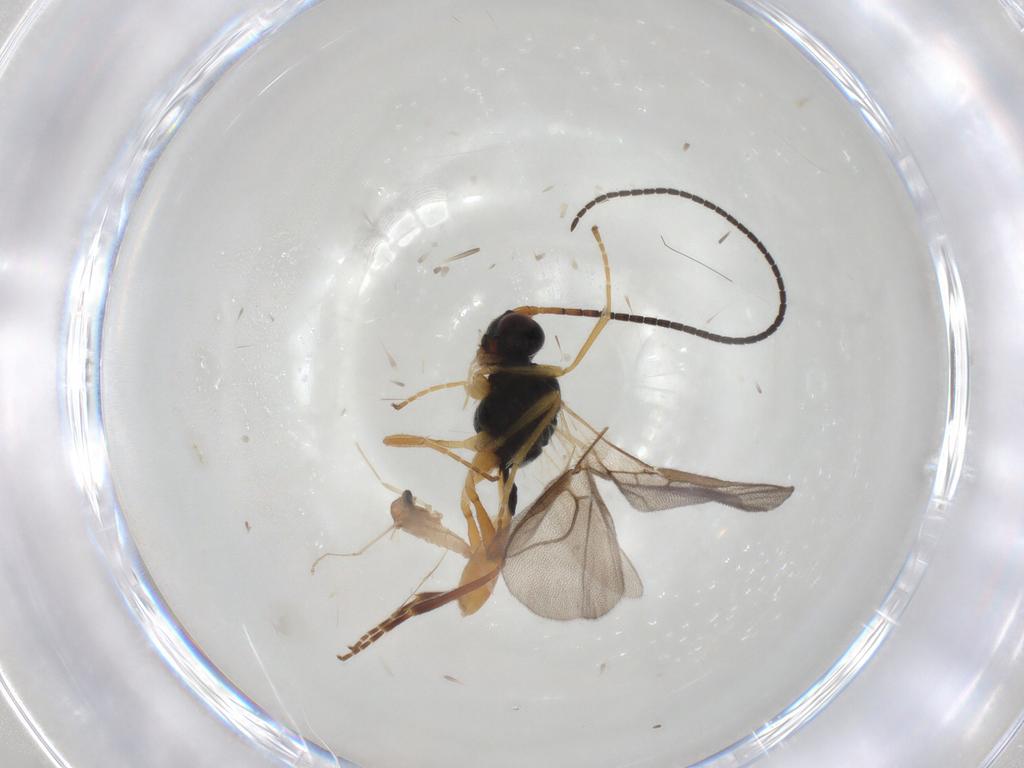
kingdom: Animalia
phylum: Arthropoda
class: Insecta
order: Hymenoptera
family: Braconidae
